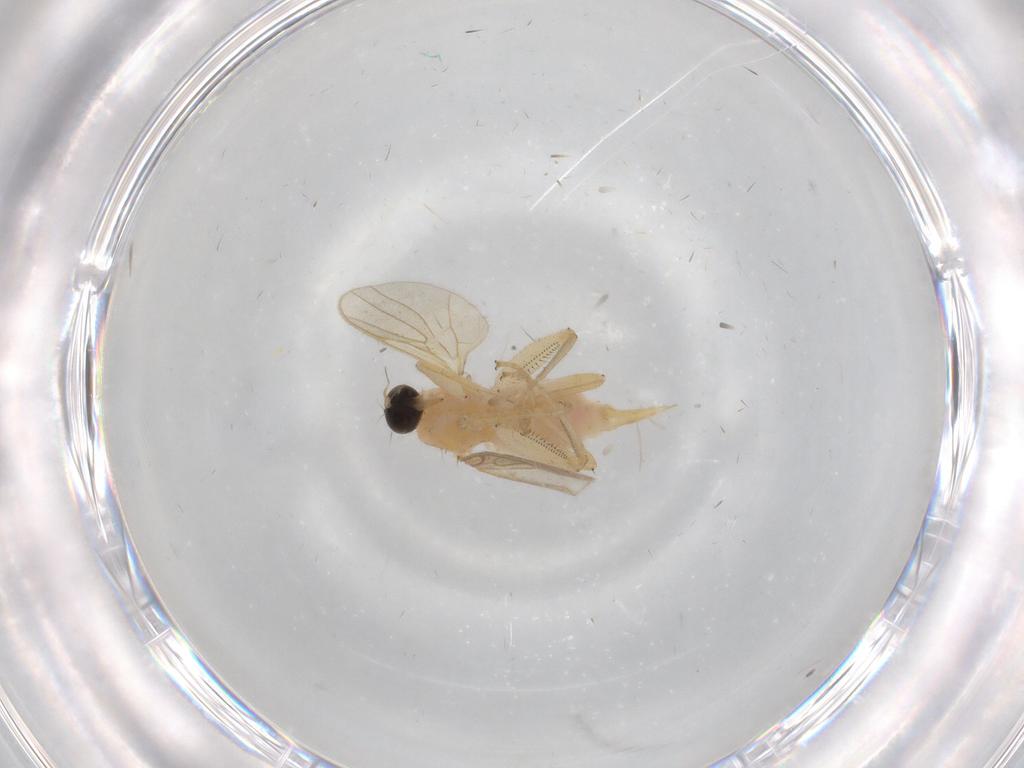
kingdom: Animalia
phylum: Arthropoda
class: Insecta
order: Diptera
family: Hybotidae
